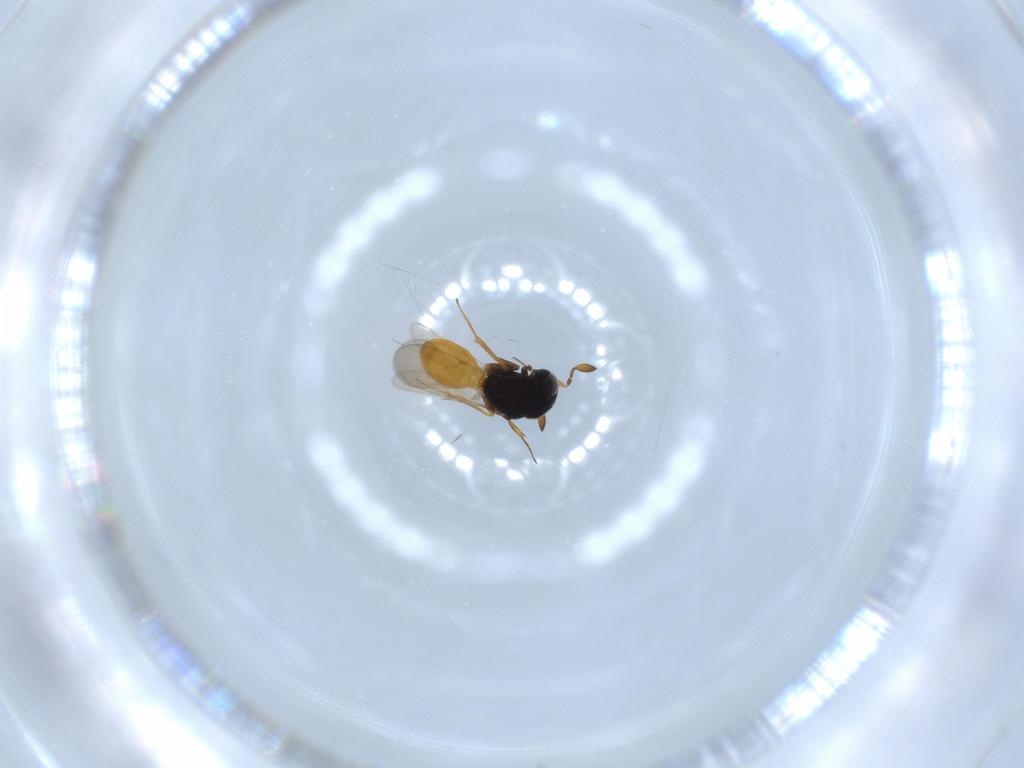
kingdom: Animalia
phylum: Arthropoda
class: Insecta
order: Hymenoptera
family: Scelionidae
